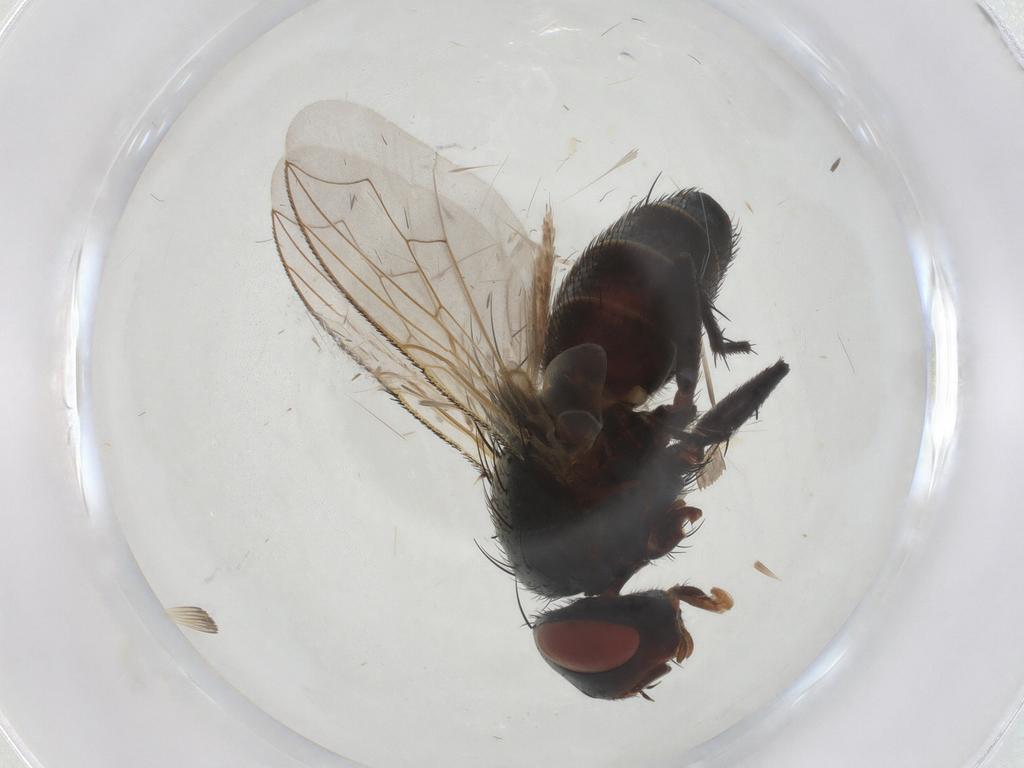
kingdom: Animalia
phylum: Arthropoda
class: Insecta
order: Diptera
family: Sarcophagidae
